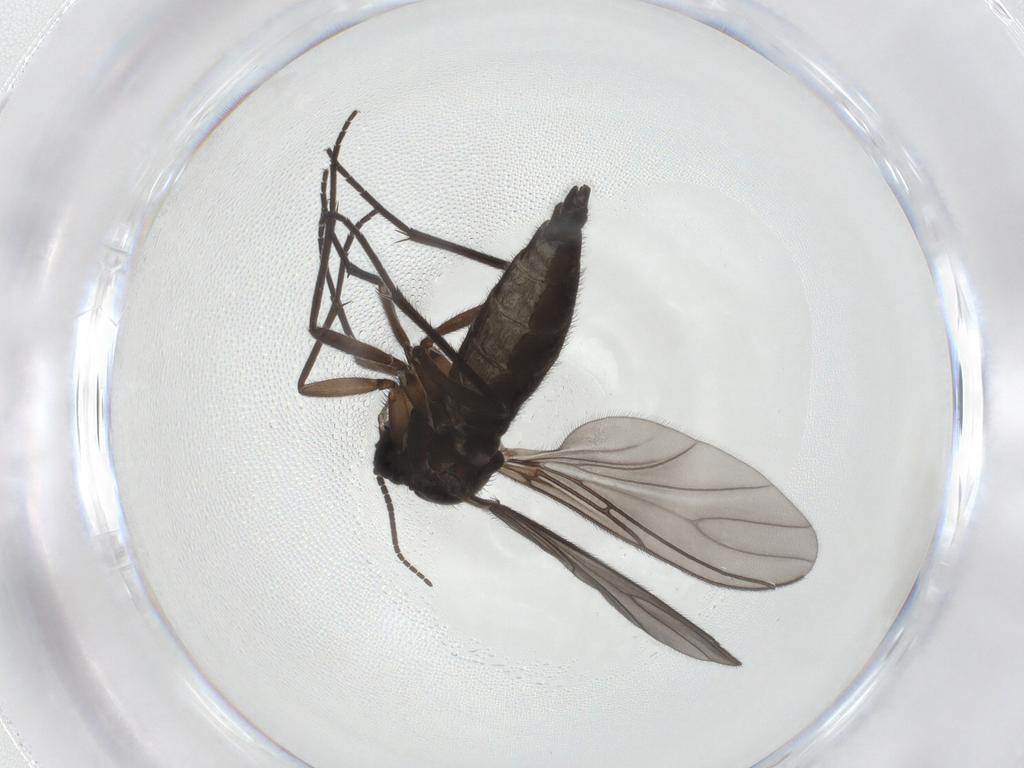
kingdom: Animalia
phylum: Arthropoda
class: Insecta
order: Diptera
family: Sciaridae
